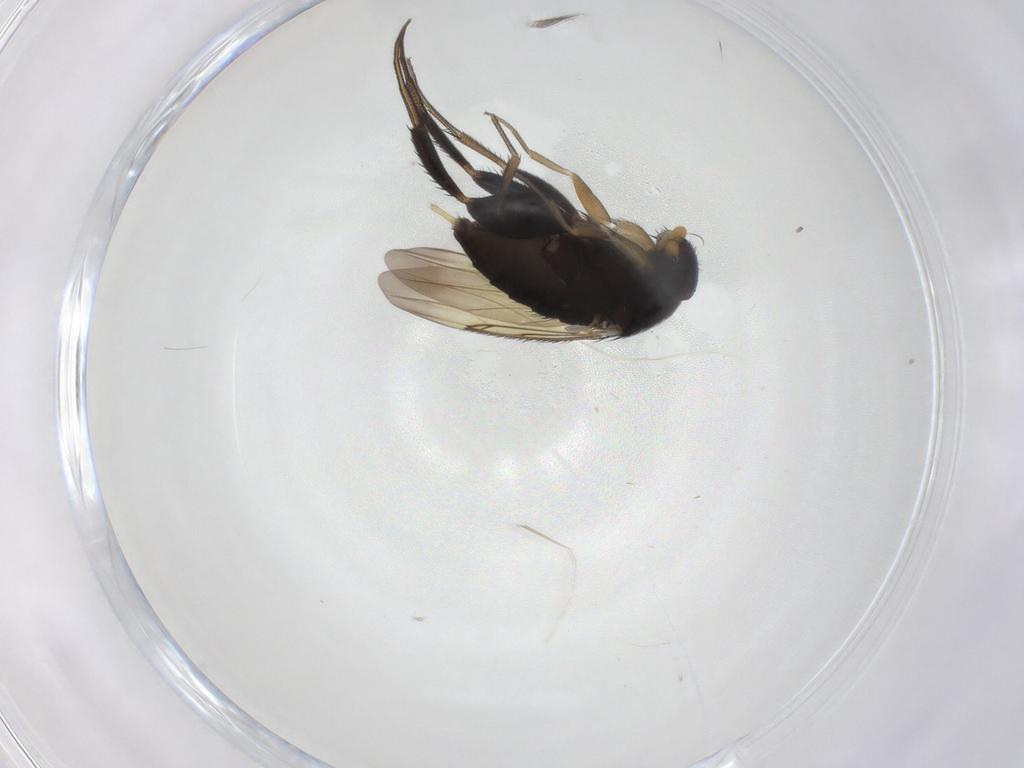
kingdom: Animalia
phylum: Arthropoda
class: Insecta
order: Diptera
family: Phoridae
